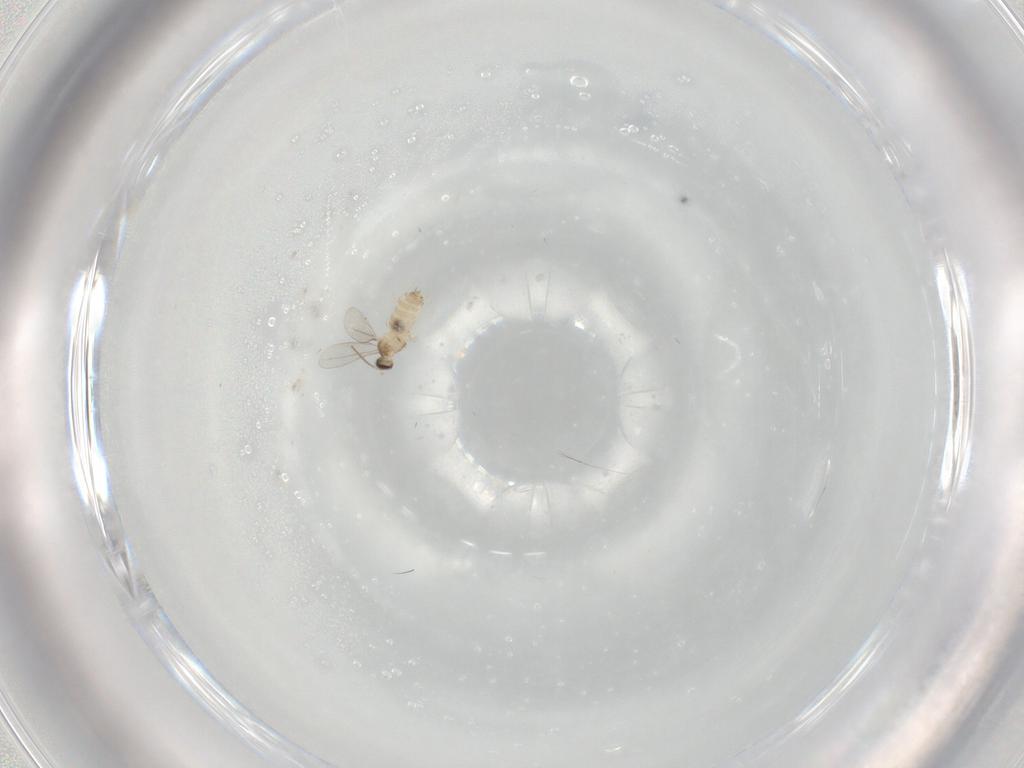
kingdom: Animalia
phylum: Arthropoda
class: Insecta
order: Diptera
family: Cecidomyiidae
